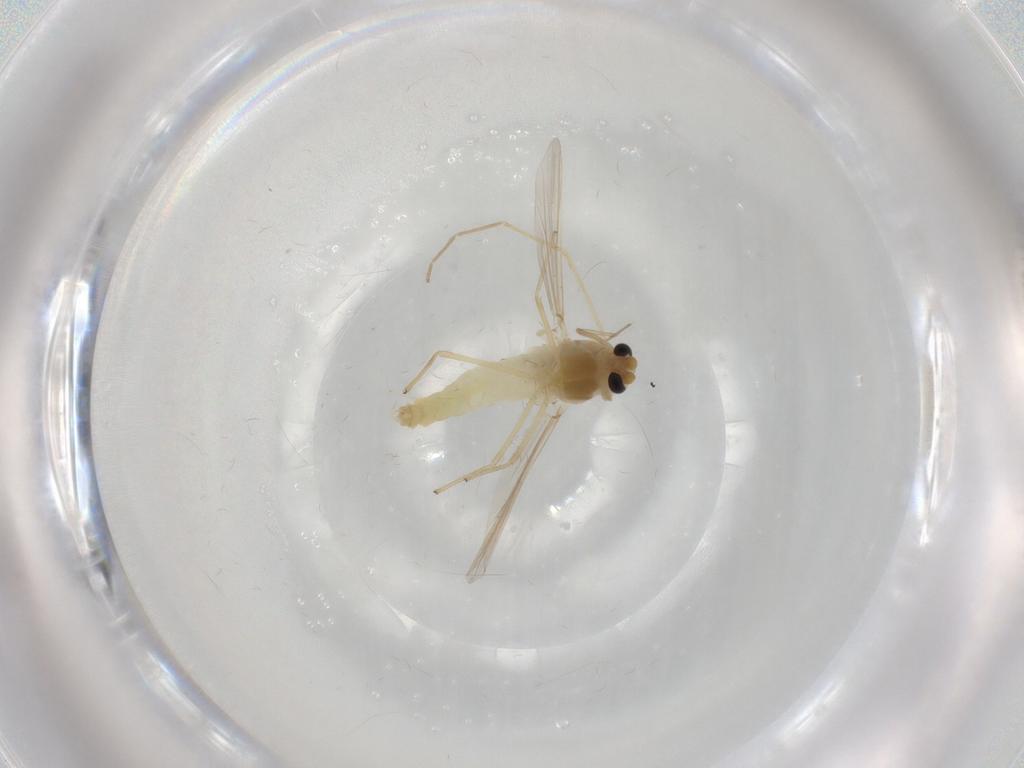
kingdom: Animalia
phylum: Arthropoda
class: Insecta
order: Diptera
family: Chironomidae
